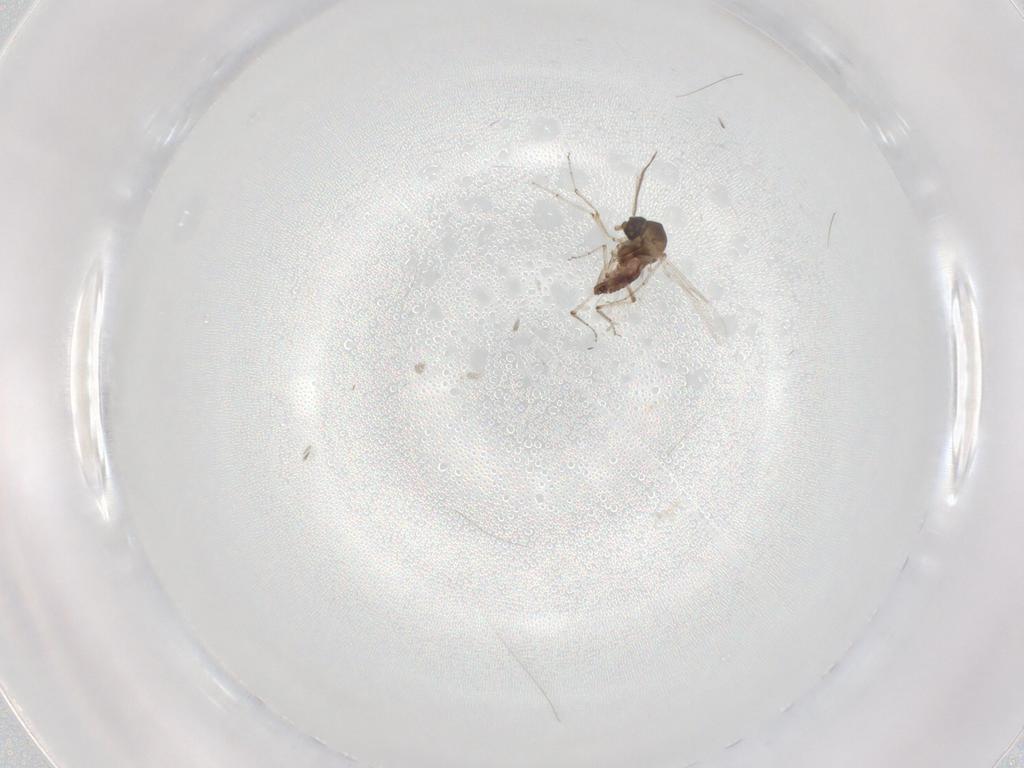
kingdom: Animalia
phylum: Arthropoda
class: Insecta
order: Diptera
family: Ceratopogonidae
